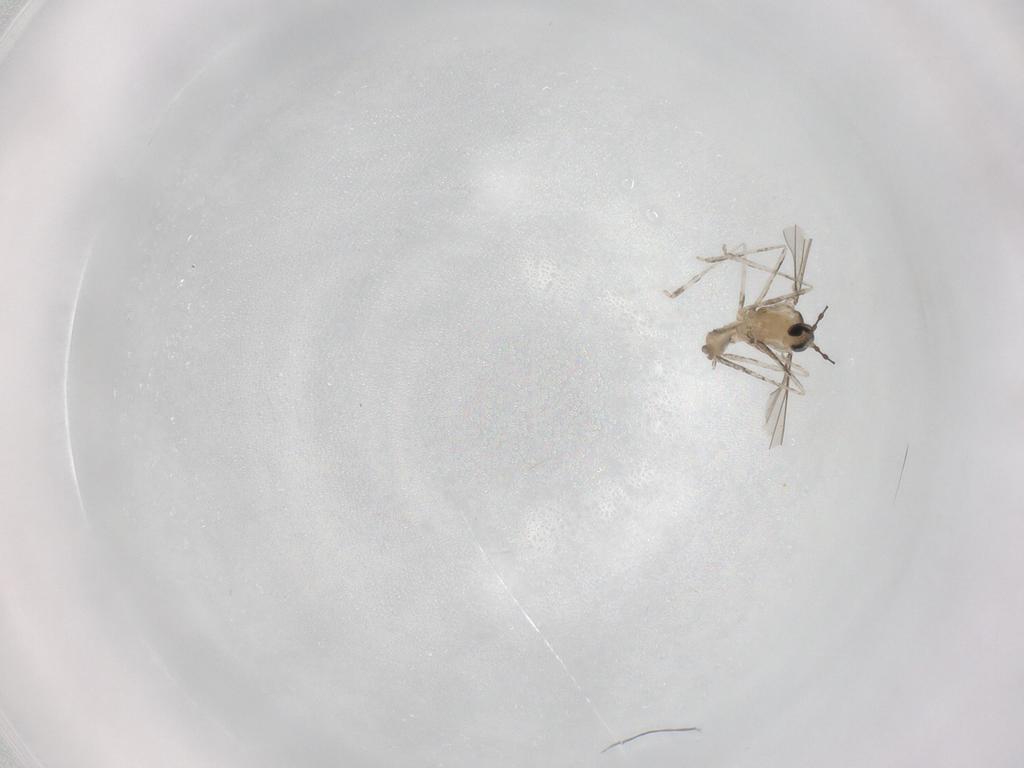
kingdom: Animalia
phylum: Arthropoda
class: Insecta
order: Diptera
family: Cecidomyiidae
